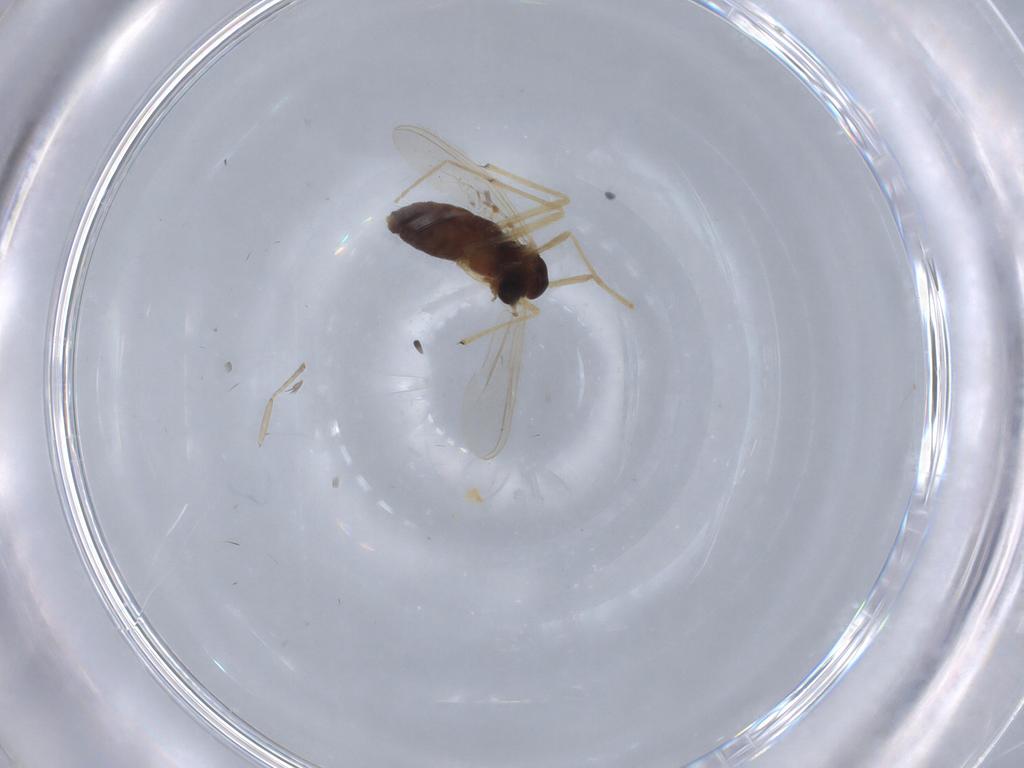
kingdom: Animalia
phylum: Arthropoda
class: Insecta
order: Diptera
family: Chironomidae
